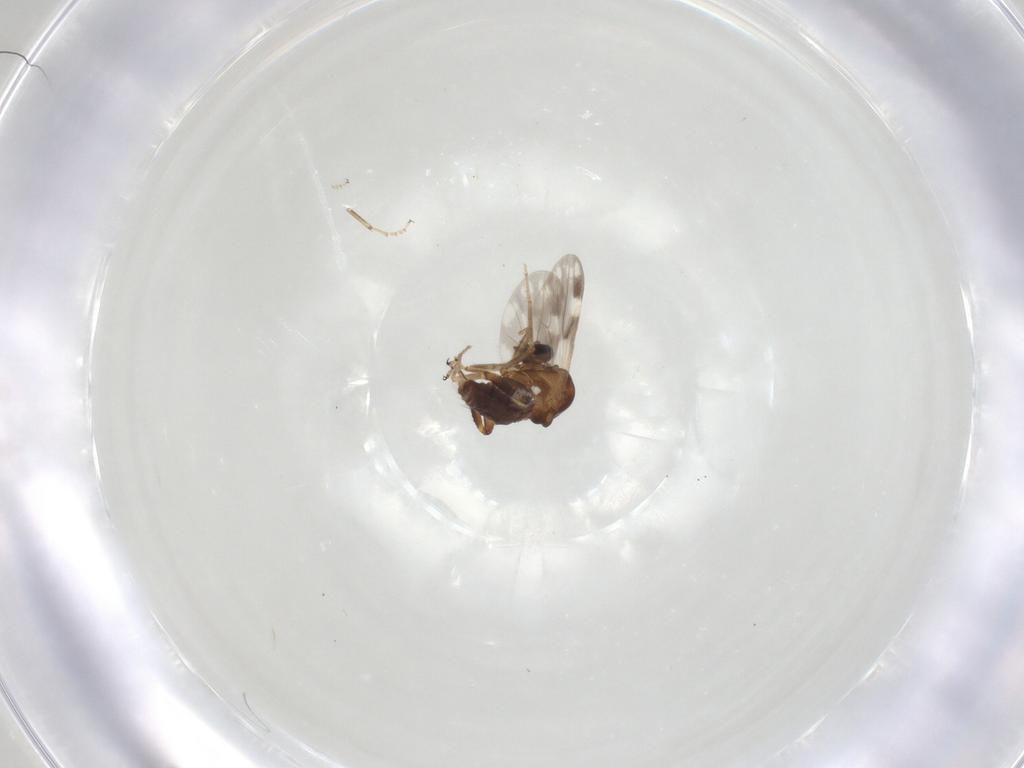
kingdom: Animalia
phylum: Arthropoda
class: Insecta
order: Diptera
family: Ceratopogonidae
